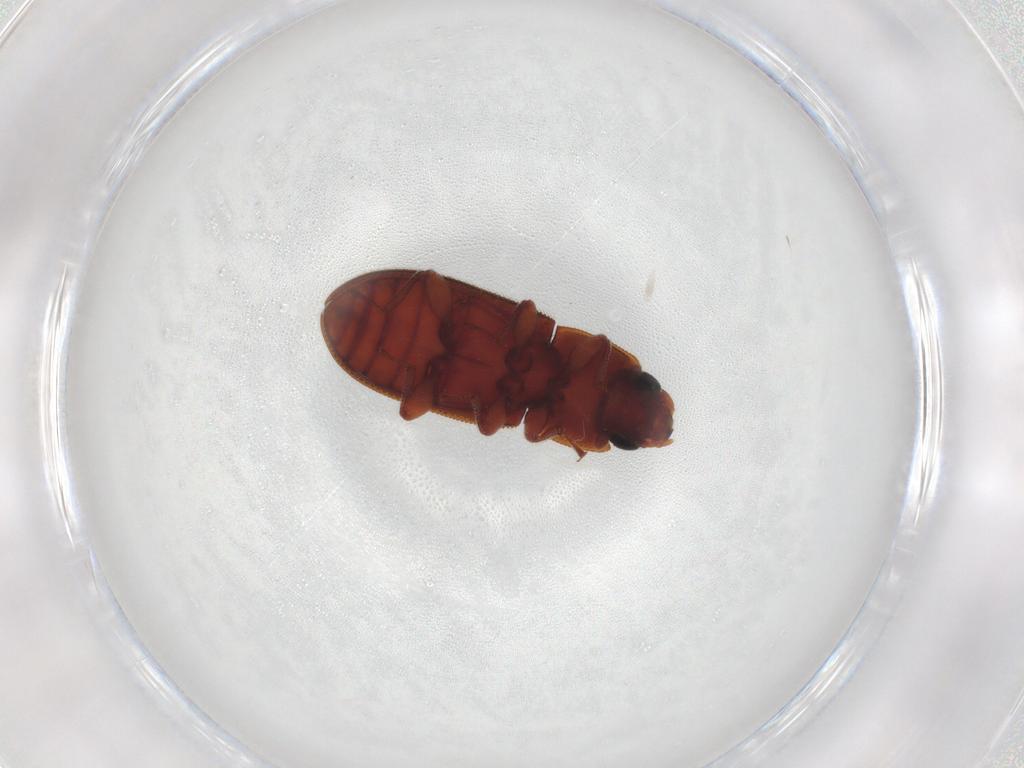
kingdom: Animalia
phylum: Arthropoda
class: Insecta
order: Coleoptera
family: Zopheridae
